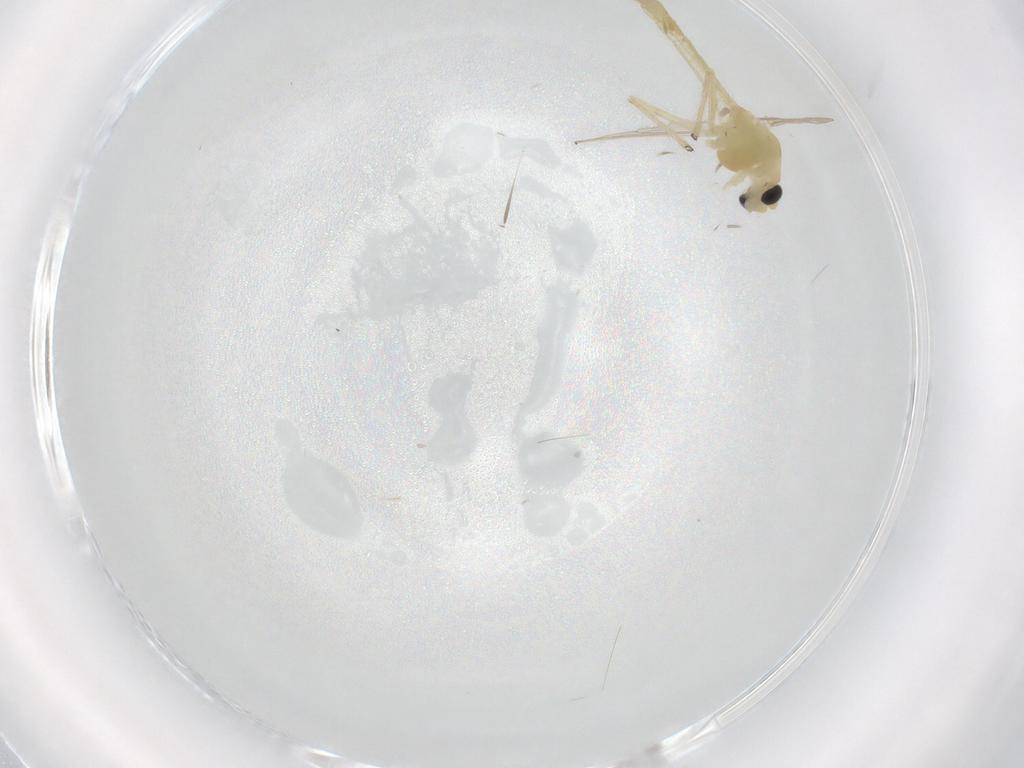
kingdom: Animalia
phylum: Arthropoda
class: Insecta
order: Diptera
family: Chironomidae
